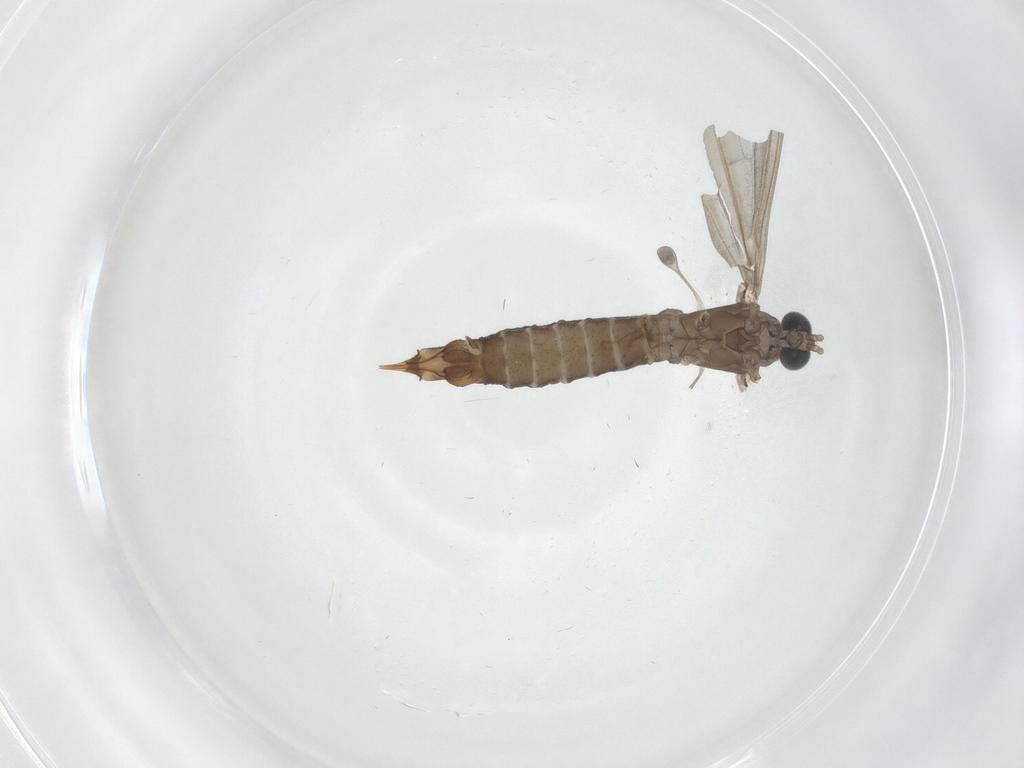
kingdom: Animalia
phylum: Arthropoda
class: Insecta
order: Diptera
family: Limoniidae
